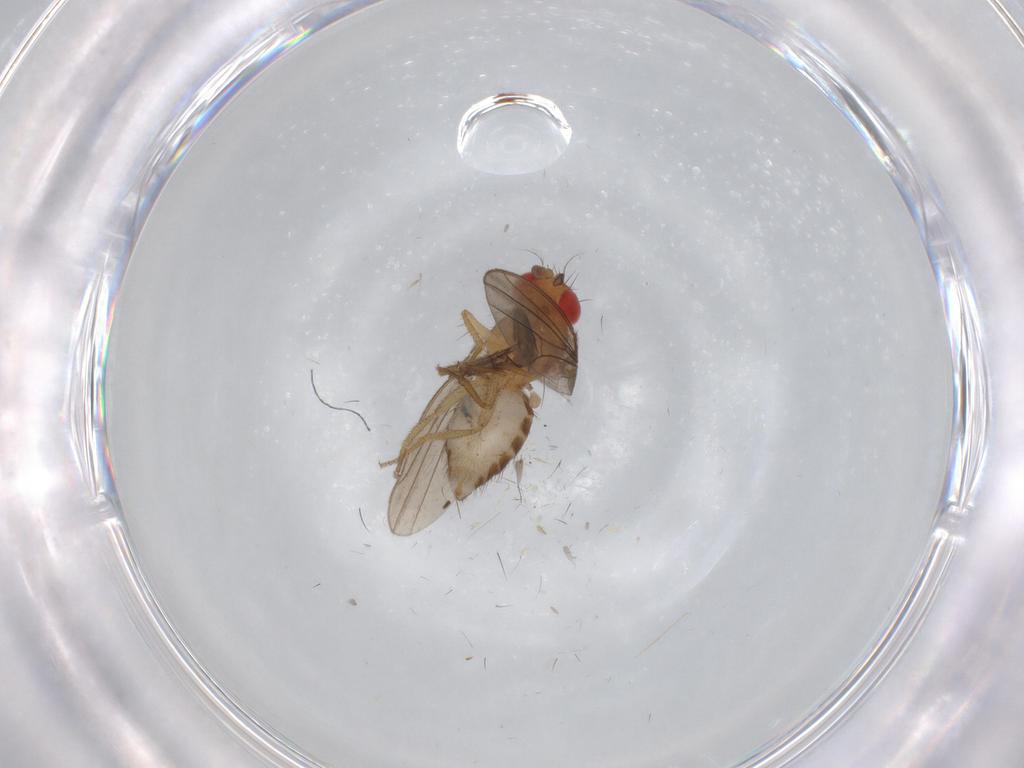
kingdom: Animalia
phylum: Arthropoda
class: Insecta
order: Diptera
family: Drosophilidae
